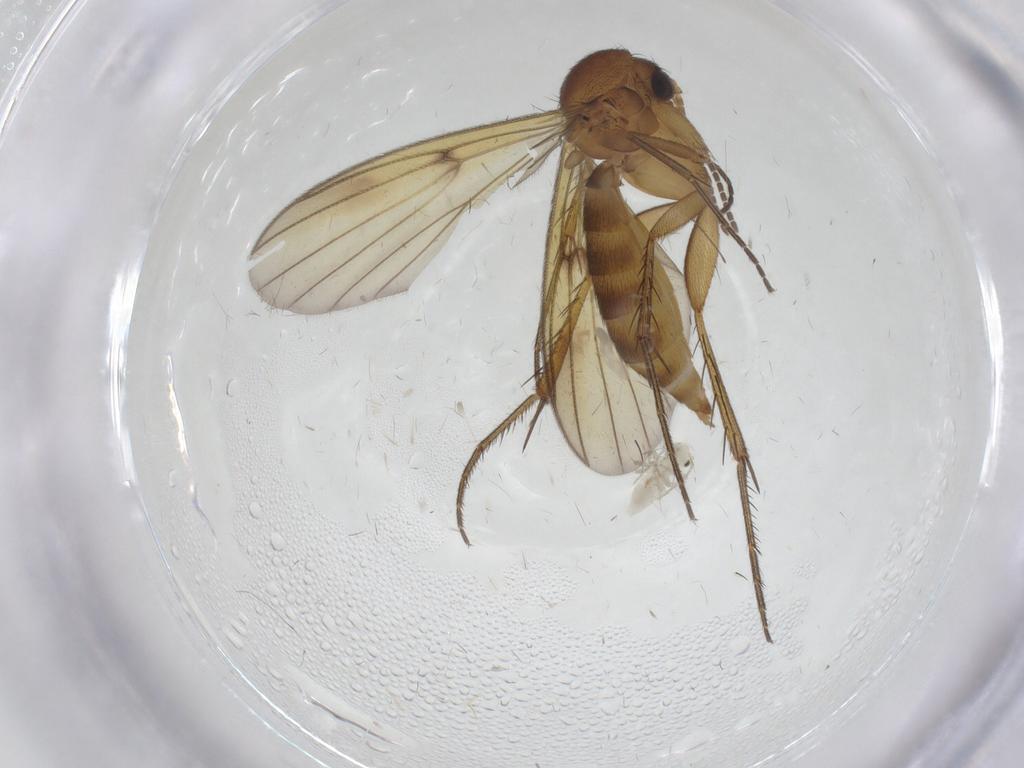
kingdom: Animalia
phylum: Arthropoda
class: Insecta
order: Diptera
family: Mycetophilidae
